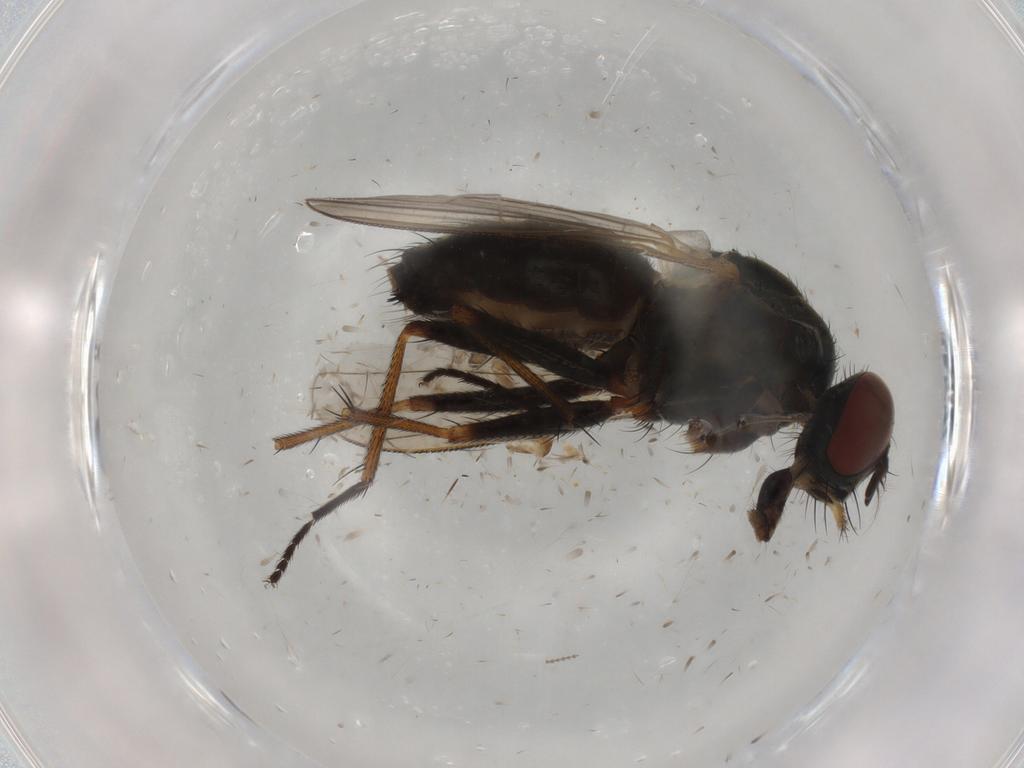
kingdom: Animalia
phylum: Arthropoda
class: Insecta
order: Diptera
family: Cecidomyiidae
